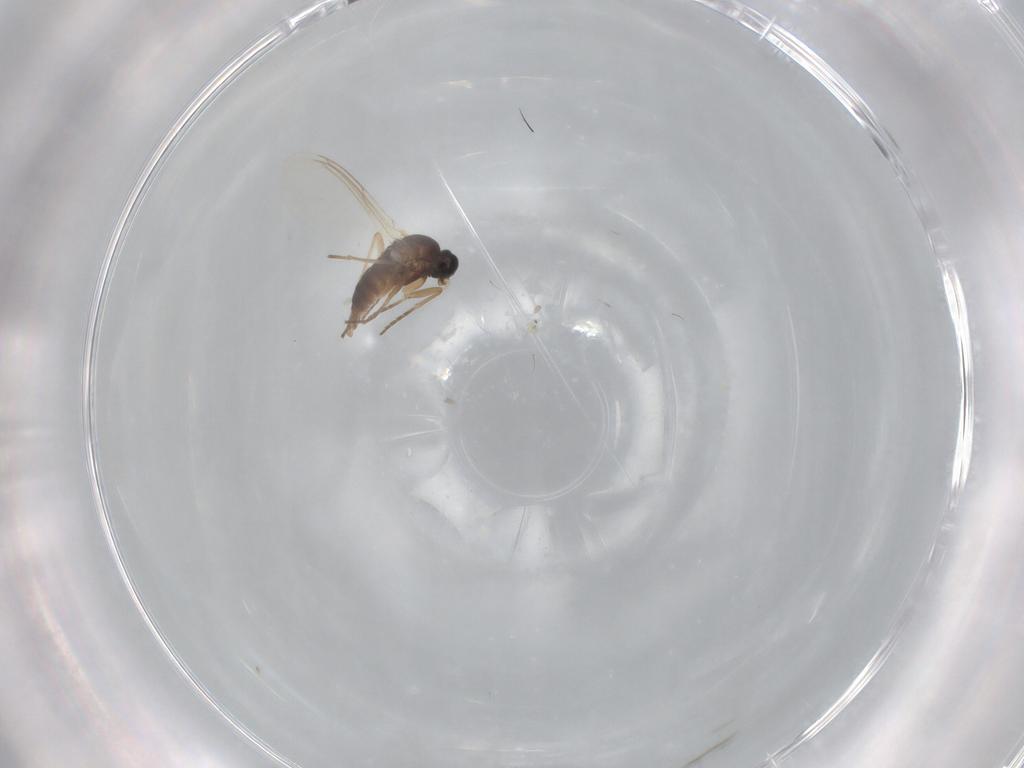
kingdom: Animalia
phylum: Arthropoda
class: Insecta
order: Diptera
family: Sciaridae
